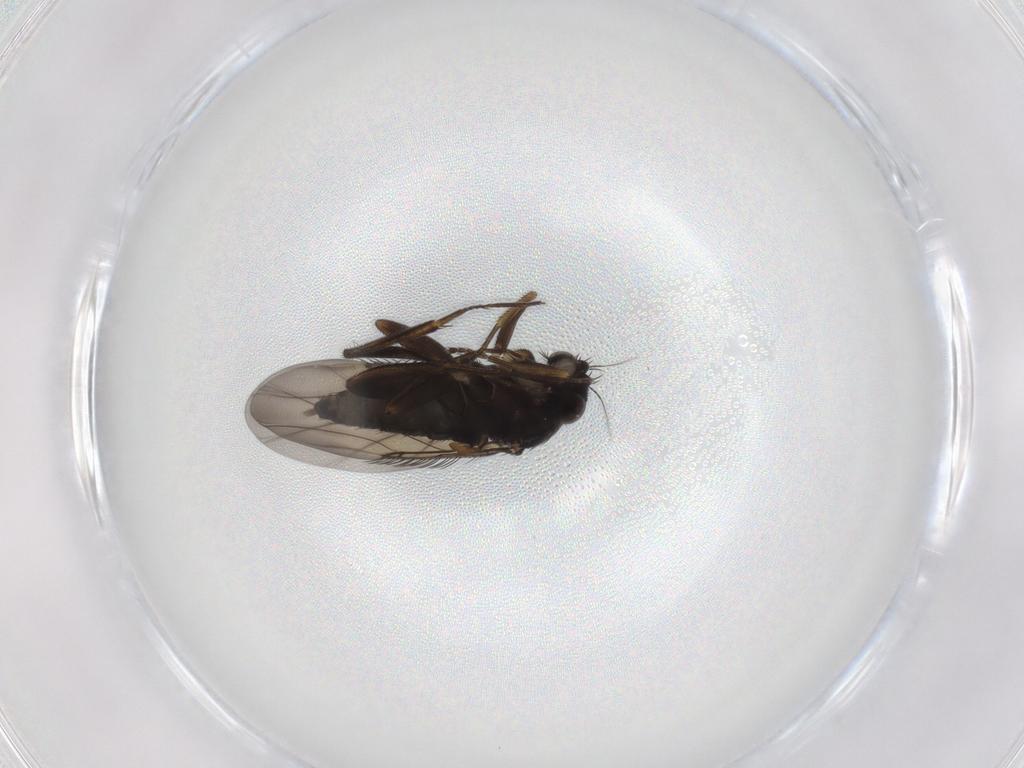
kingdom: Animalia
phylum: Arthropoda
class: Insecta
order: Diptera
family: Phoridae
